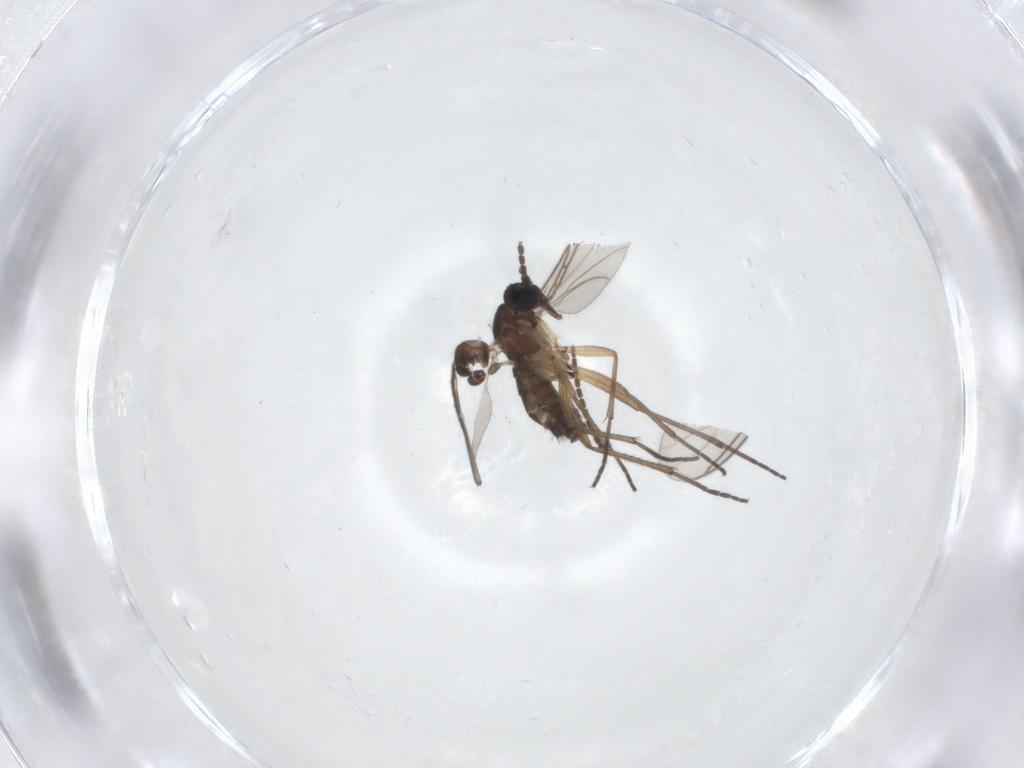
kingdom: Animalia
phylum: Arthropoda
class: Insecta
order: Diptera
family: Sciaridae
